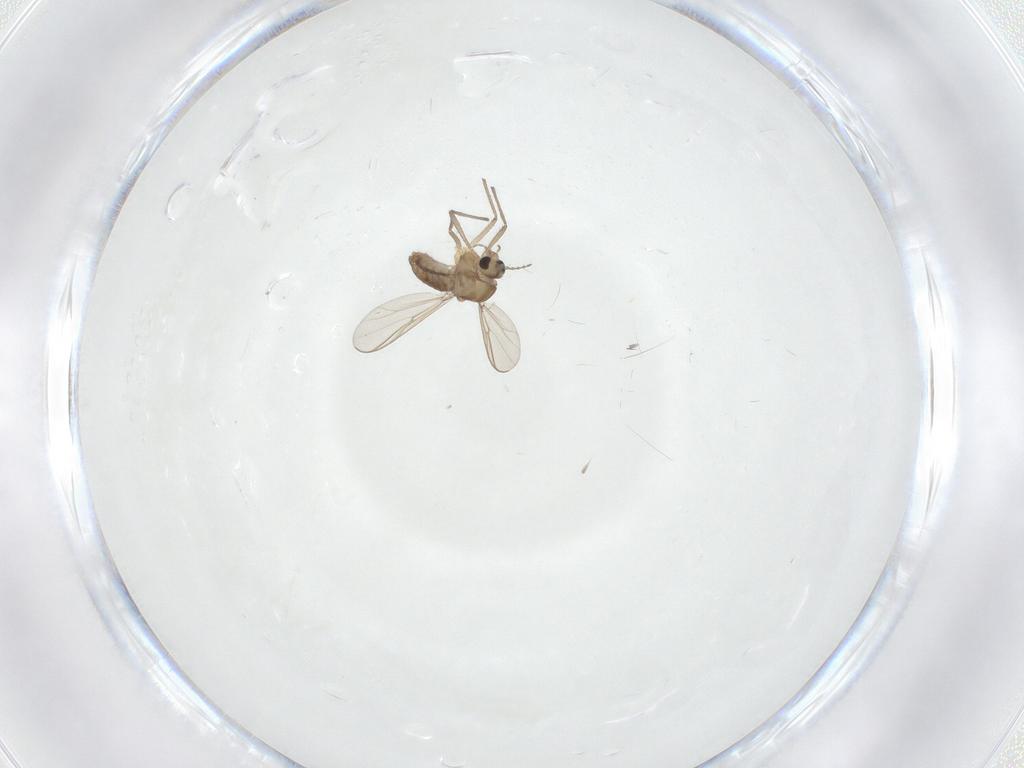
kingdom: Animalia
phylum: Arthropoda
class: Insecta
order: Diptera
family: Chironomidae
